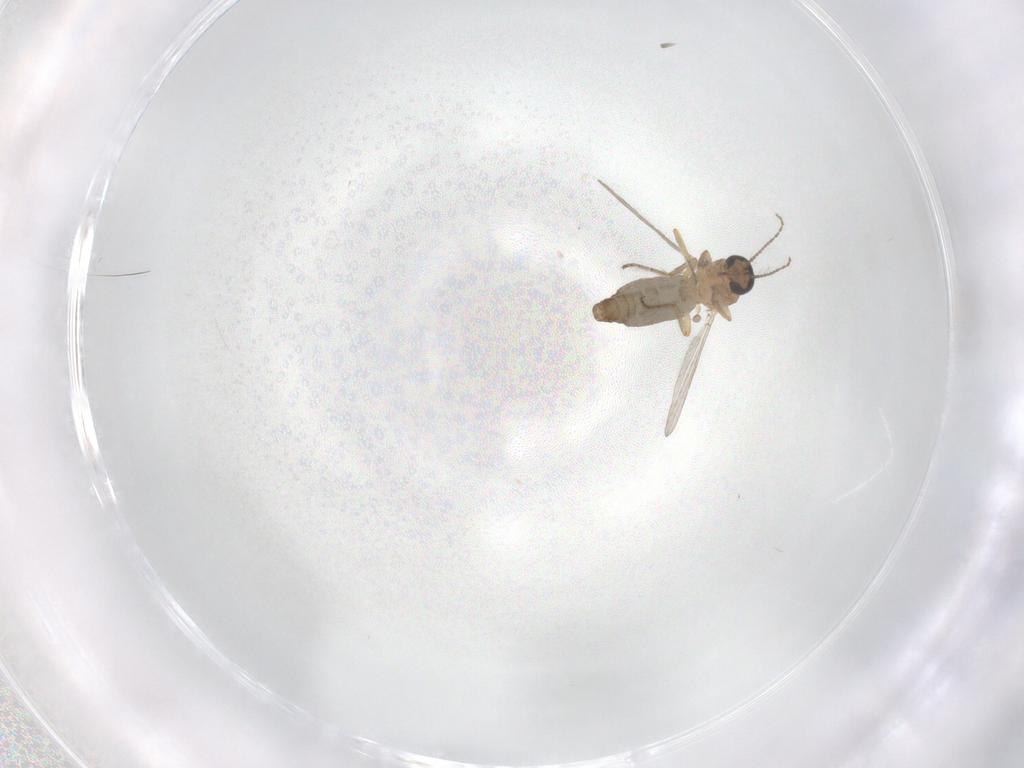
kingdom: Animalia
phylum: Arthropoda
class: Insecta
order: Diptera
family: Ceratopogonidae
